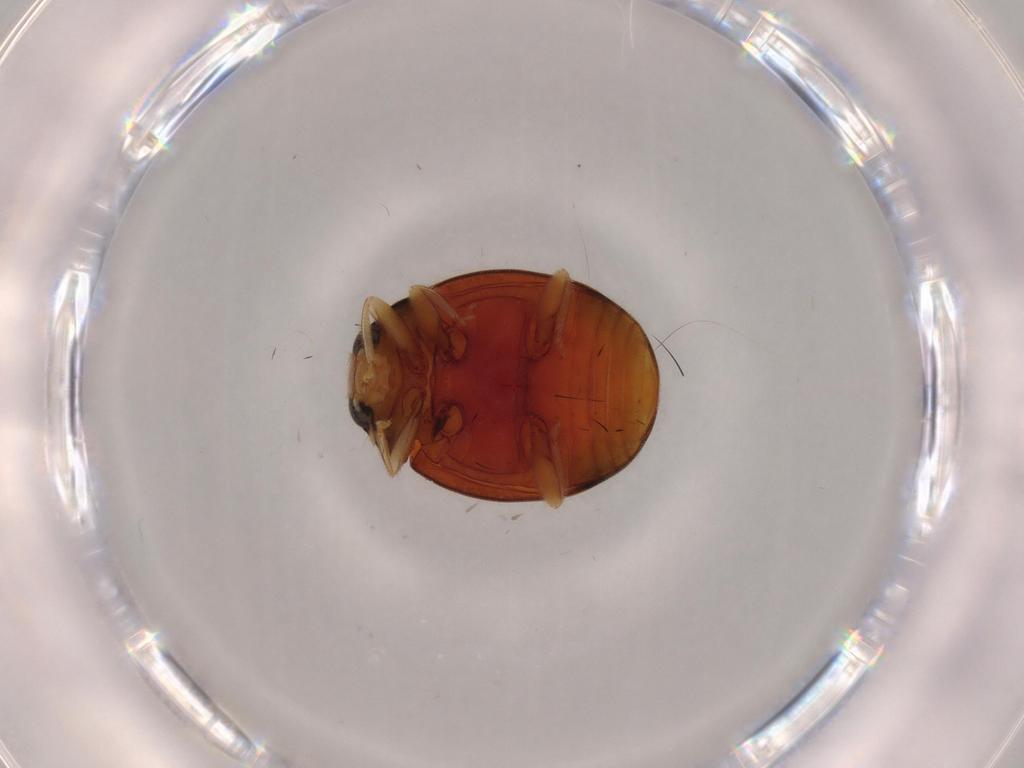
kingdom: Animalia
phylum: Arthropoda
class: Insecta
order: Coleoptera
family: Coccinellidae
